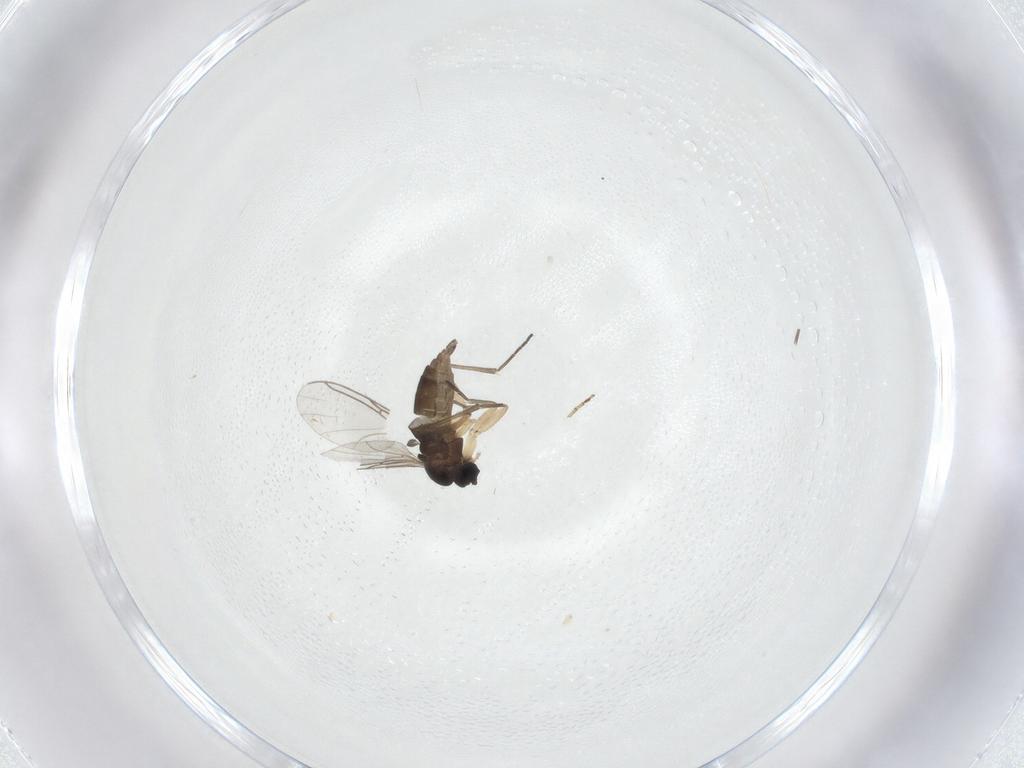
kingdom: Animalia
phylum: Arthropoda
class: Insecta
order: Diptera
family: Sciaridae
